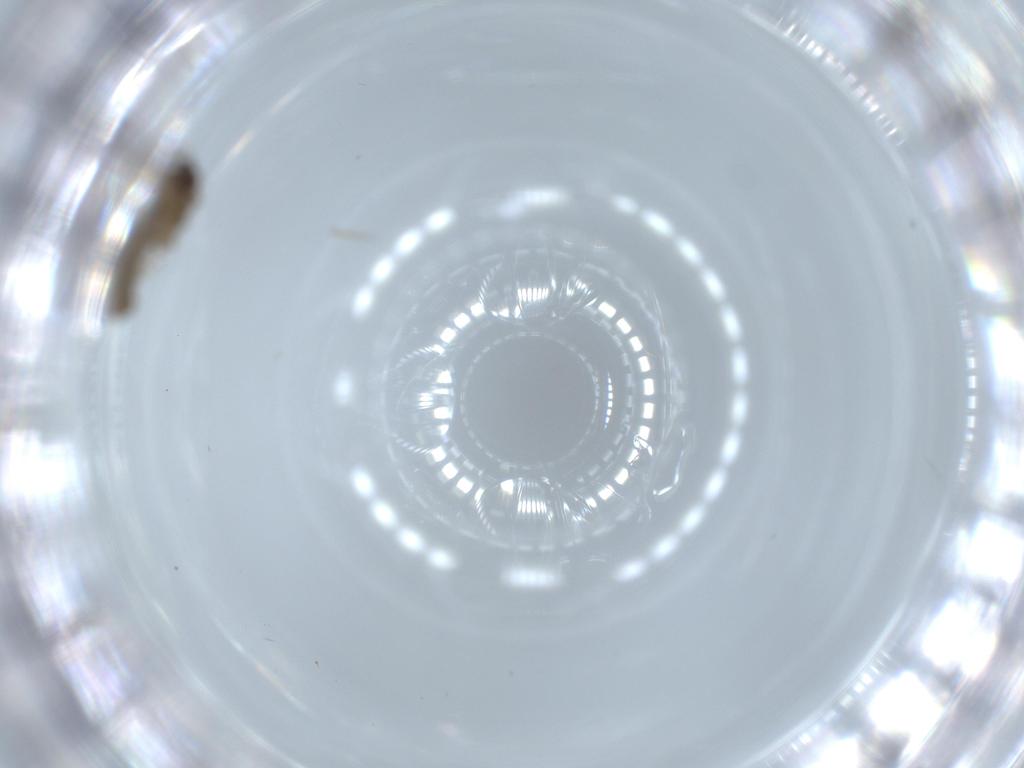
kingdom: Animalia
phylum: Arthropoda
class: Insecta
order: Diptera
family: Cecidomyiidae
